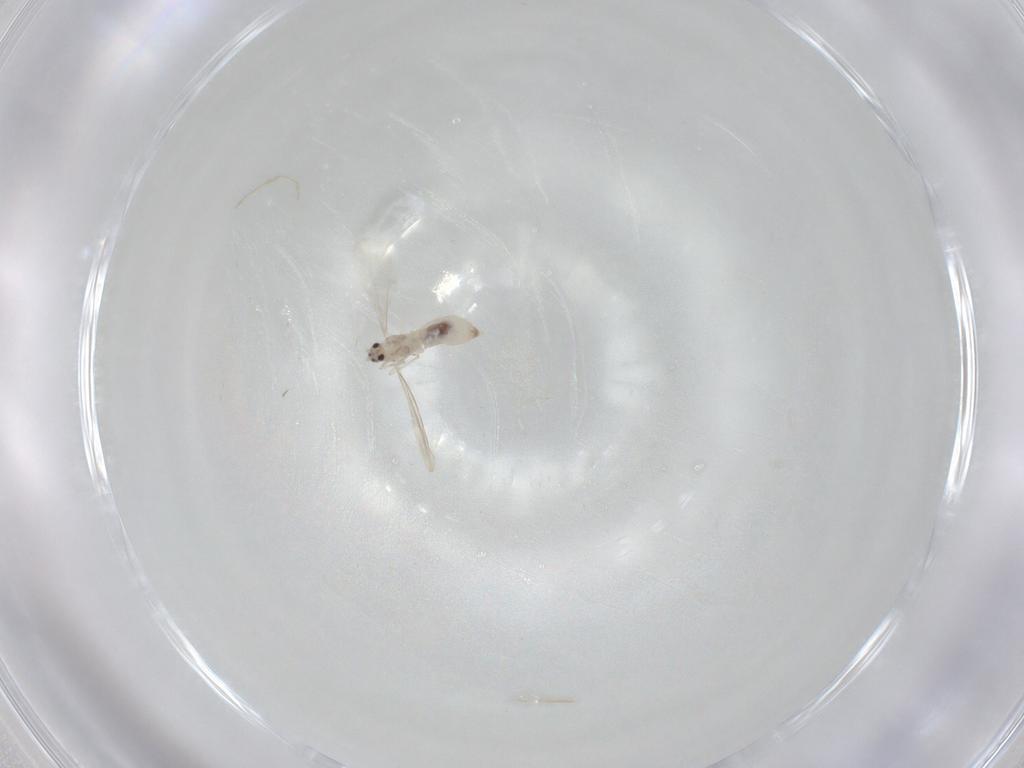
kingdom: Animalia
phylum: Arthropoda
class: Insecta
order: Diptera
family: Cecidomyiidae
